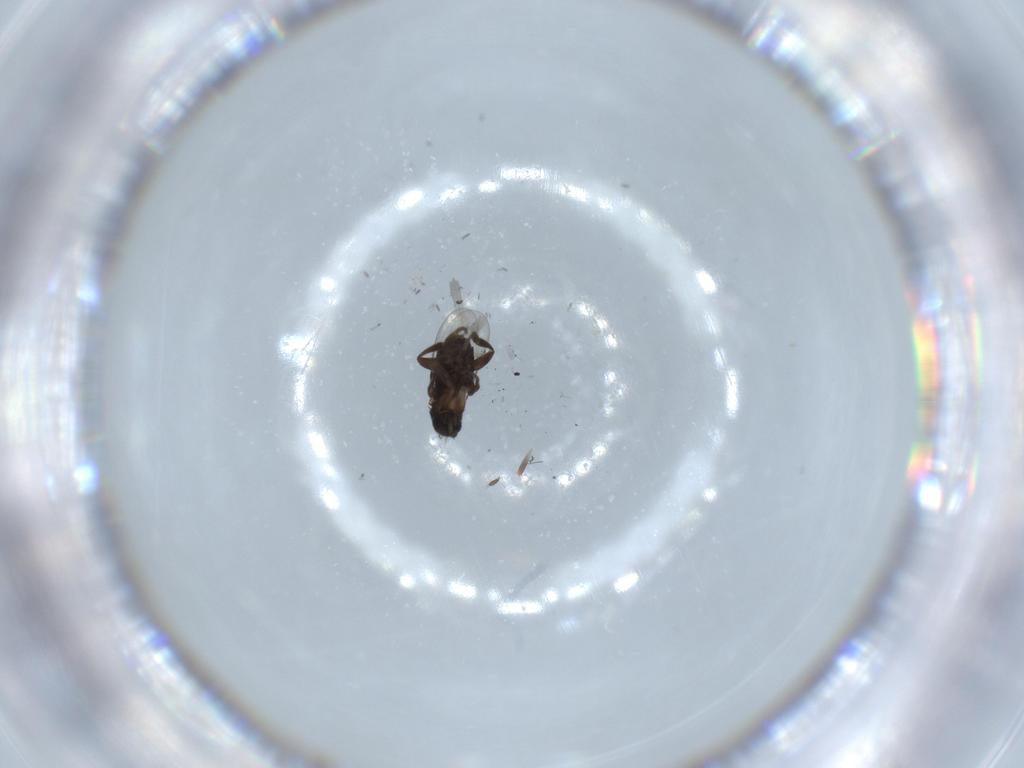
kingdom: Animalia
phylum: Arthropoda
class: Insecta
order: Diptera
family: Phoridae
